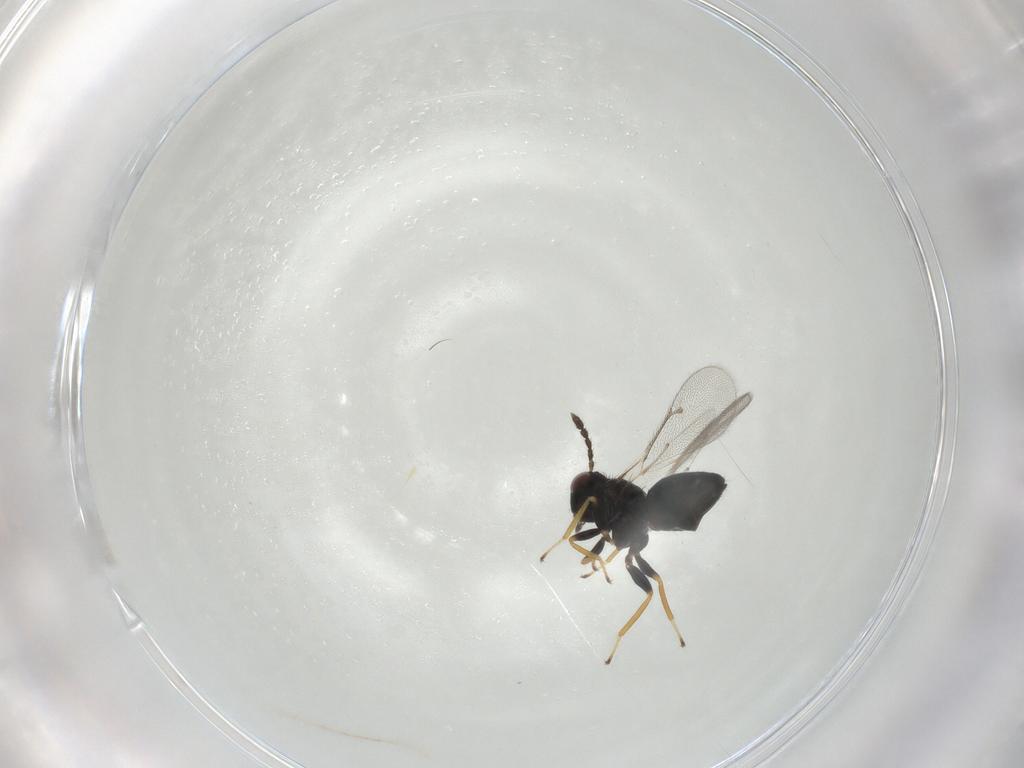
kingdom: Animalia
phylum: Arthropoda
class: Insecta
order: Hymenoptera
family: Eulophidae
